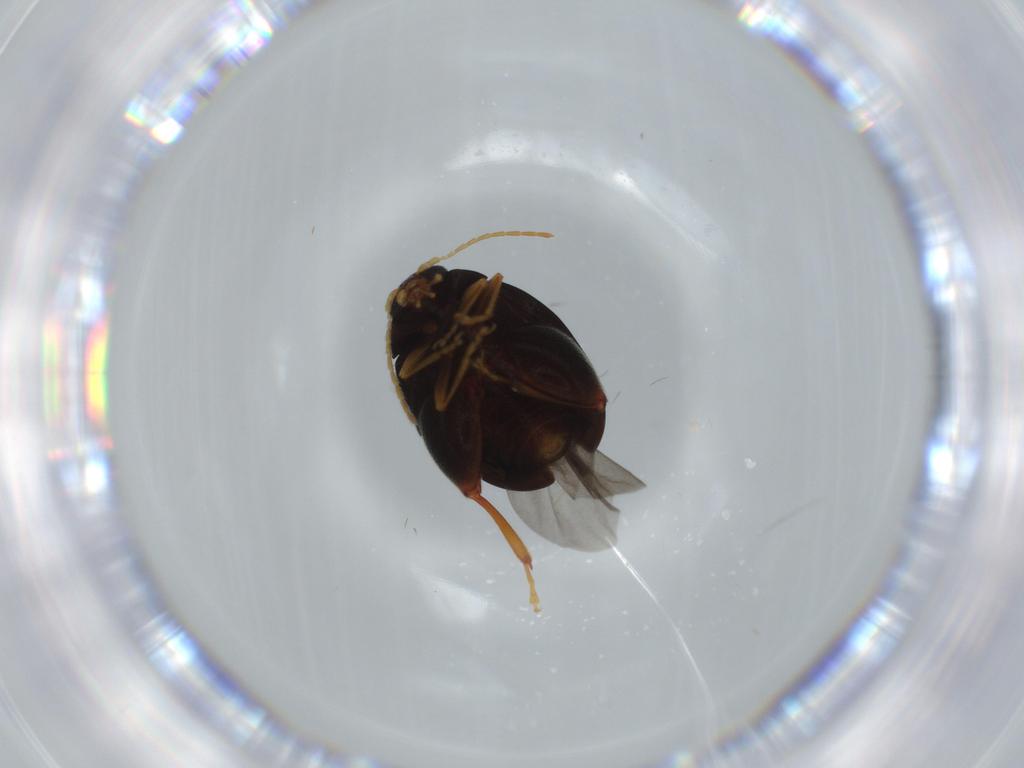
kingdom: Animalia
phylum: Arthropoda
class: Insecta
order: Coleoptera
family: Chrysomelidae
